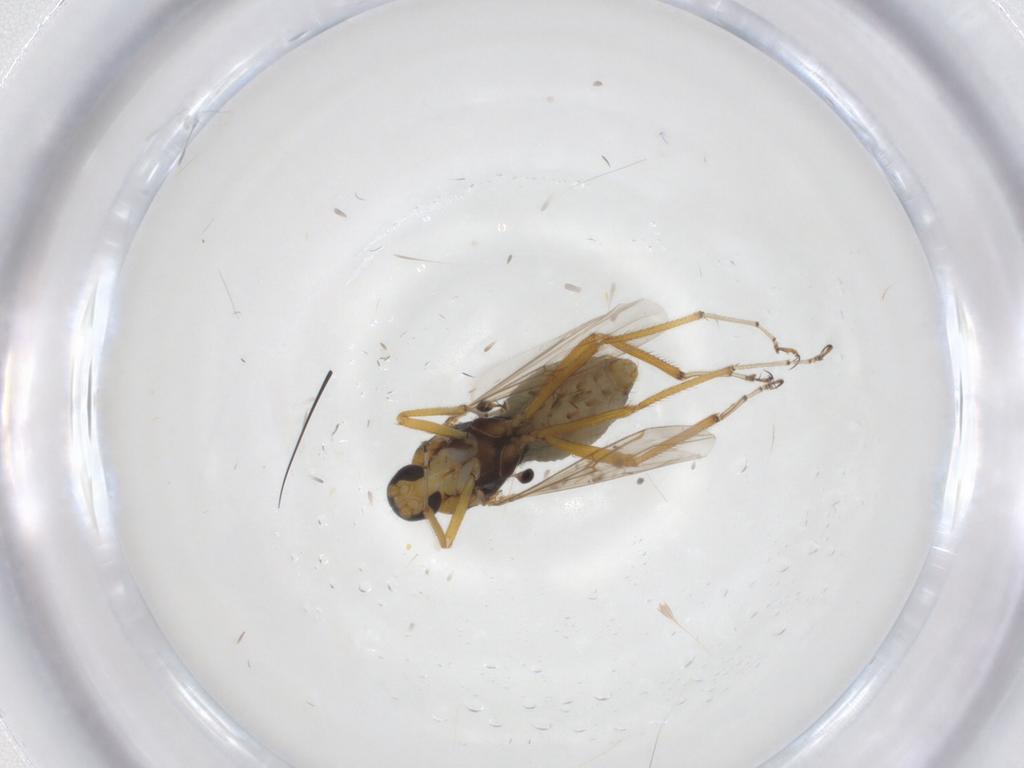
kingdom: Animalia
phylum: Arthropoda
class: Insecta
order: Diptera
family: Ceratopogonidae
